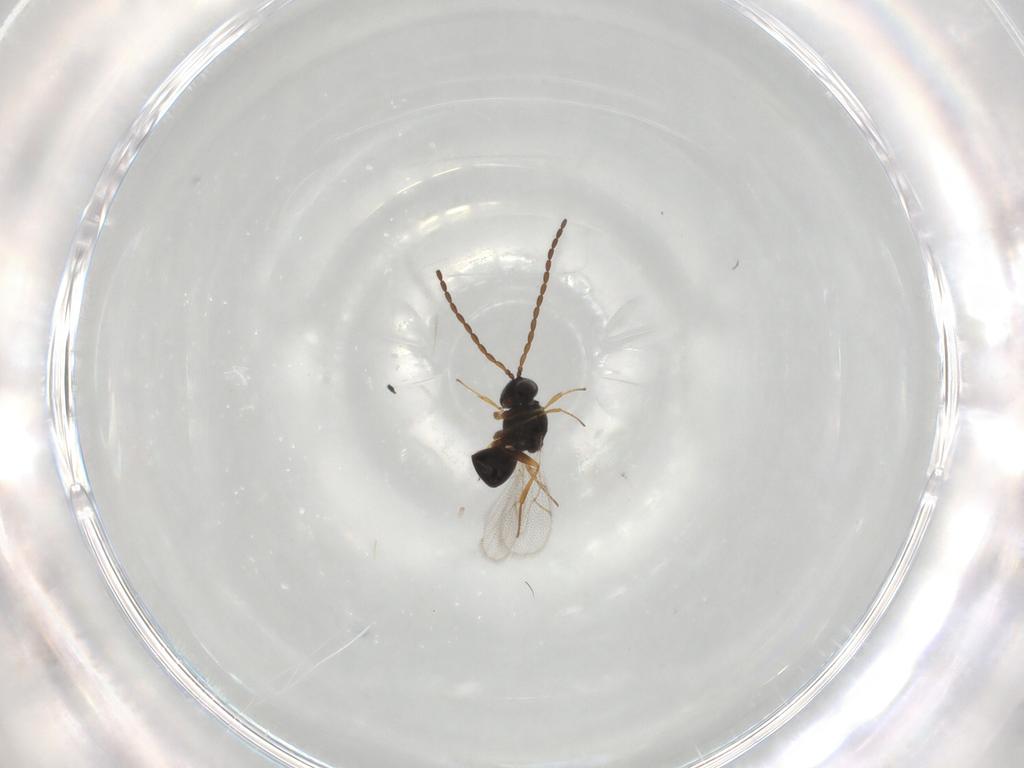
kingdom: Animalia
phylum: Arthropoda
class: Insecta
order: Hymenoptera
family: Figitidae
